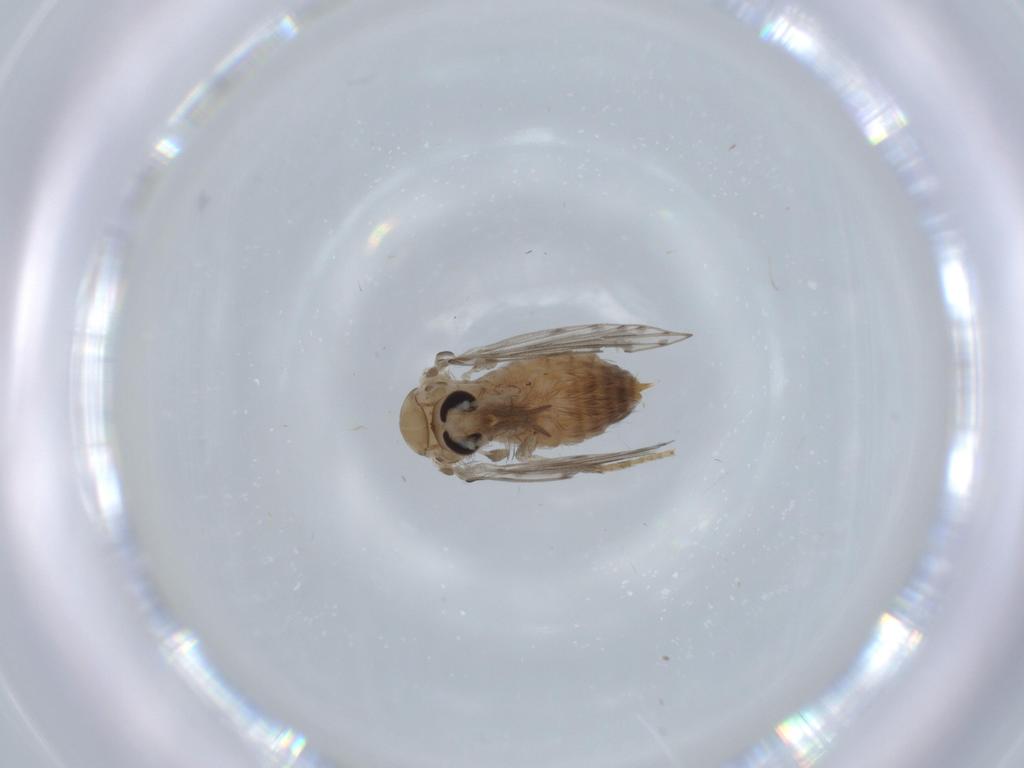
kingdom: Animalia
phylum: Arthropoda
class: Insecta
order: Diptera
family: Psychodidae
